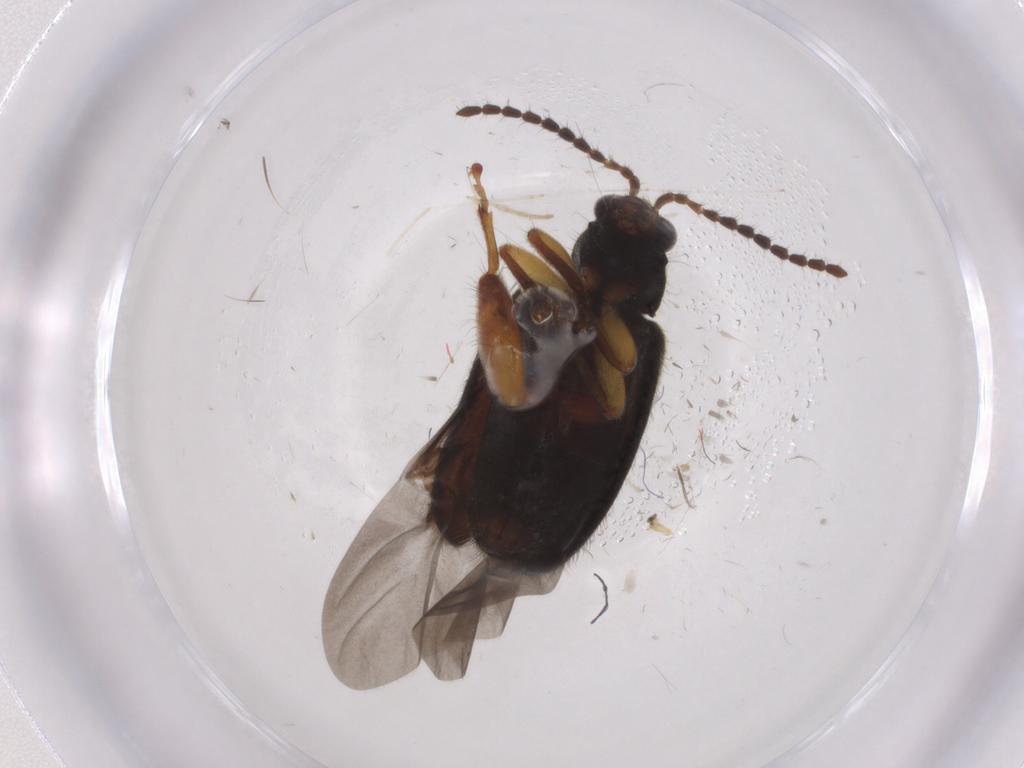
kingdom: Animalia
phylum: Arthropoda
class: Insecta
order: Coleoptera
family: Chrysomelidae
